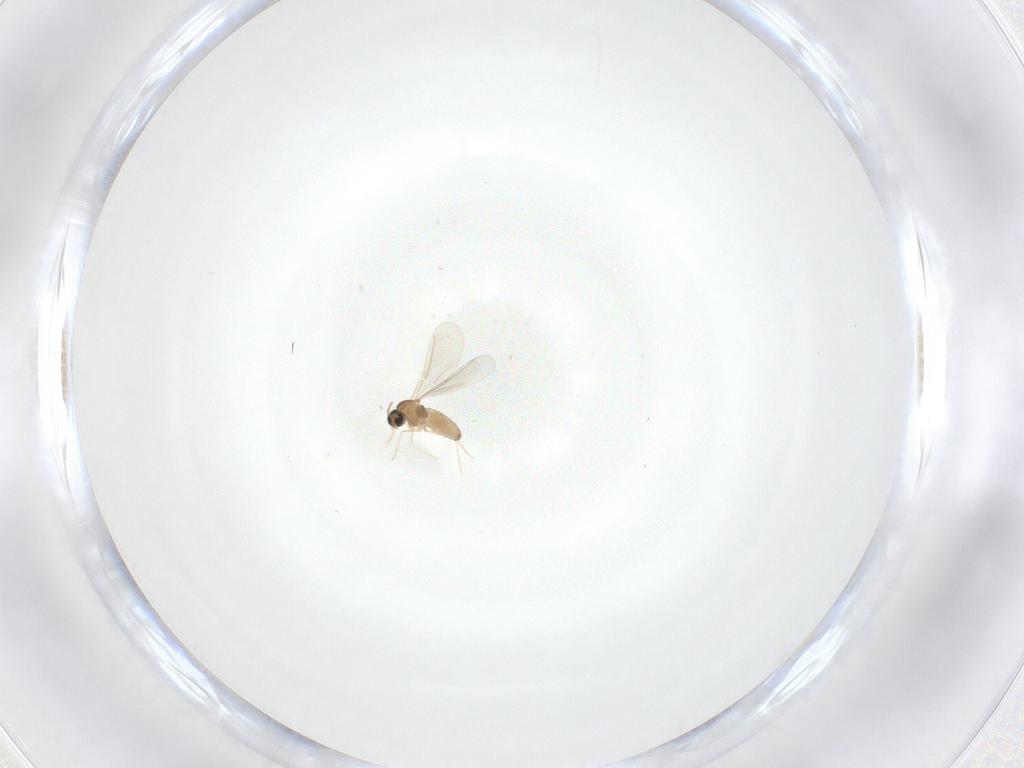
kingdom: Animalia
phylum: Arthropoda
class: Insecta
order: Diptera
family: Cecidomyiidae
